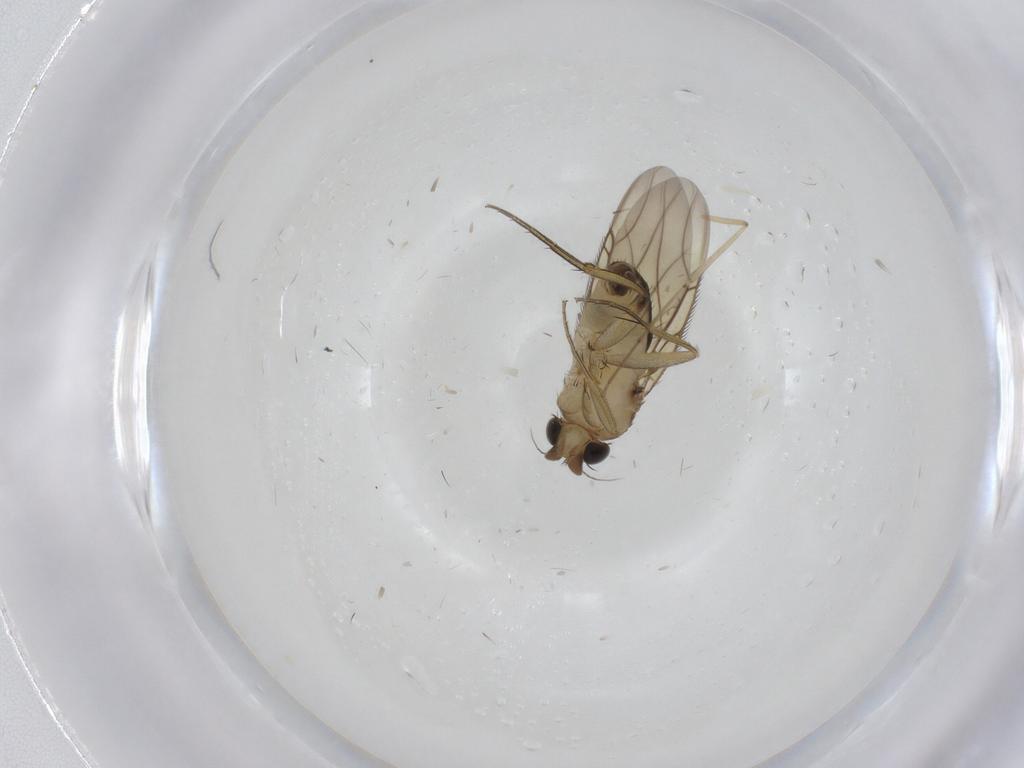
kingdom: Animalia
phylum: Arthropoda
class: Insecta
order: Diptera
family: Phoridae
